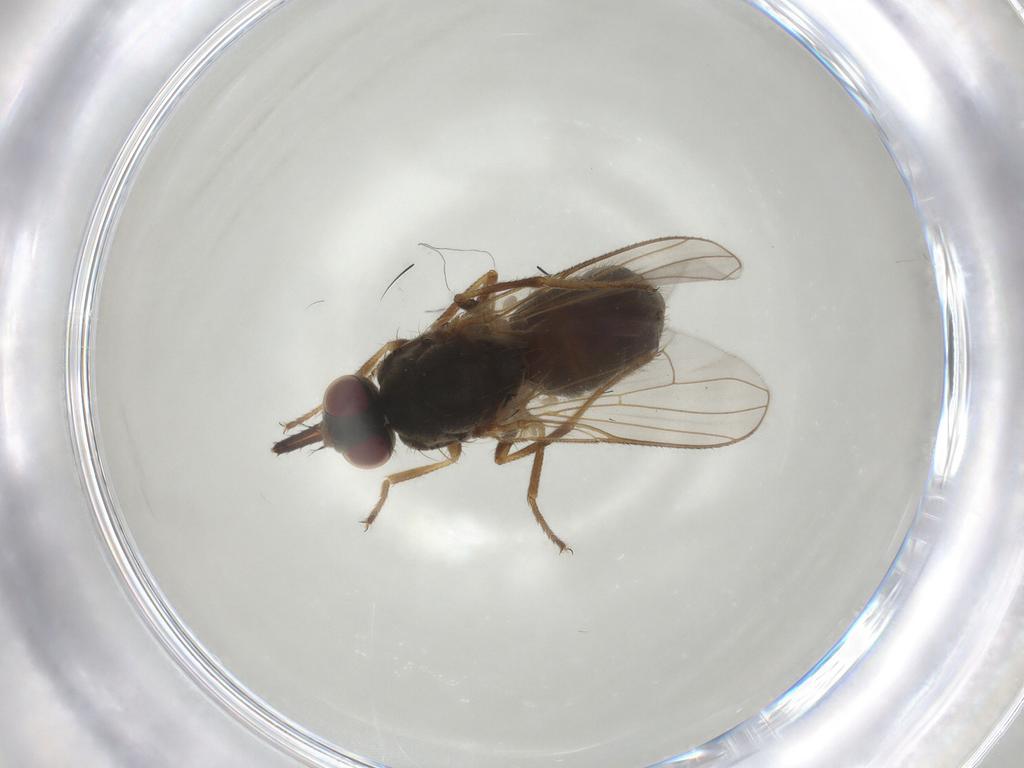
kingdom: Animalia
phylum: Arthropoda
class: Insecta
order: Diptera
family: Muscidae
